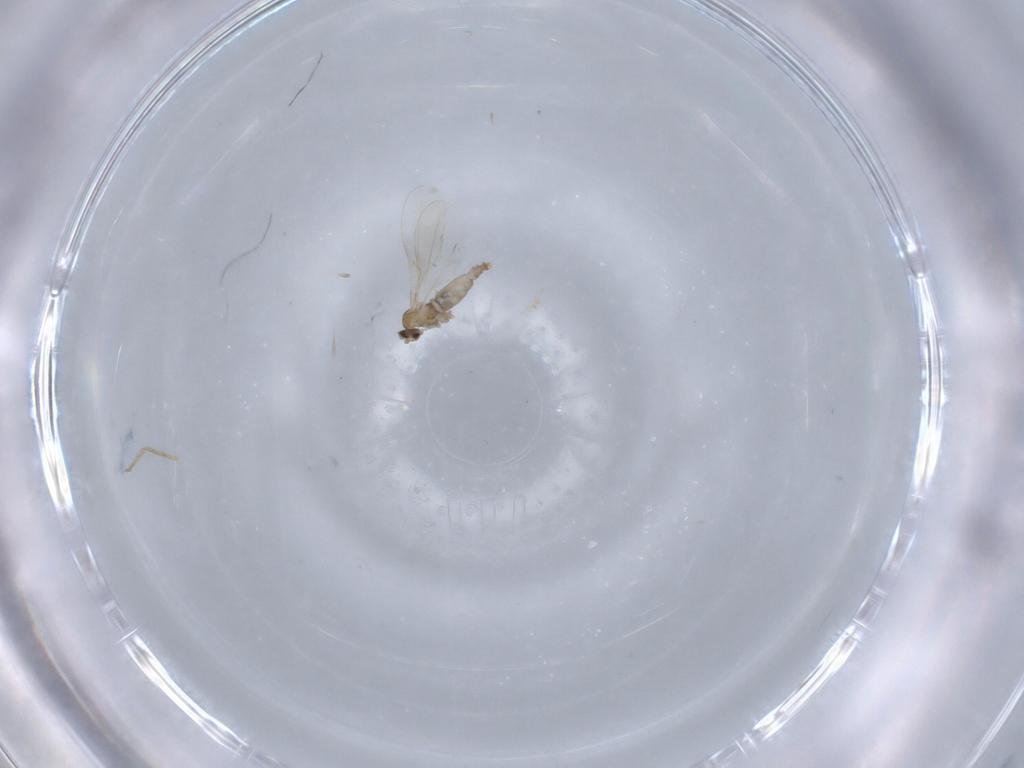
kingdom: Animalia
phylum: Arthropoda
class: Insecta
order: Diptera
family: Cecidomyiidae
